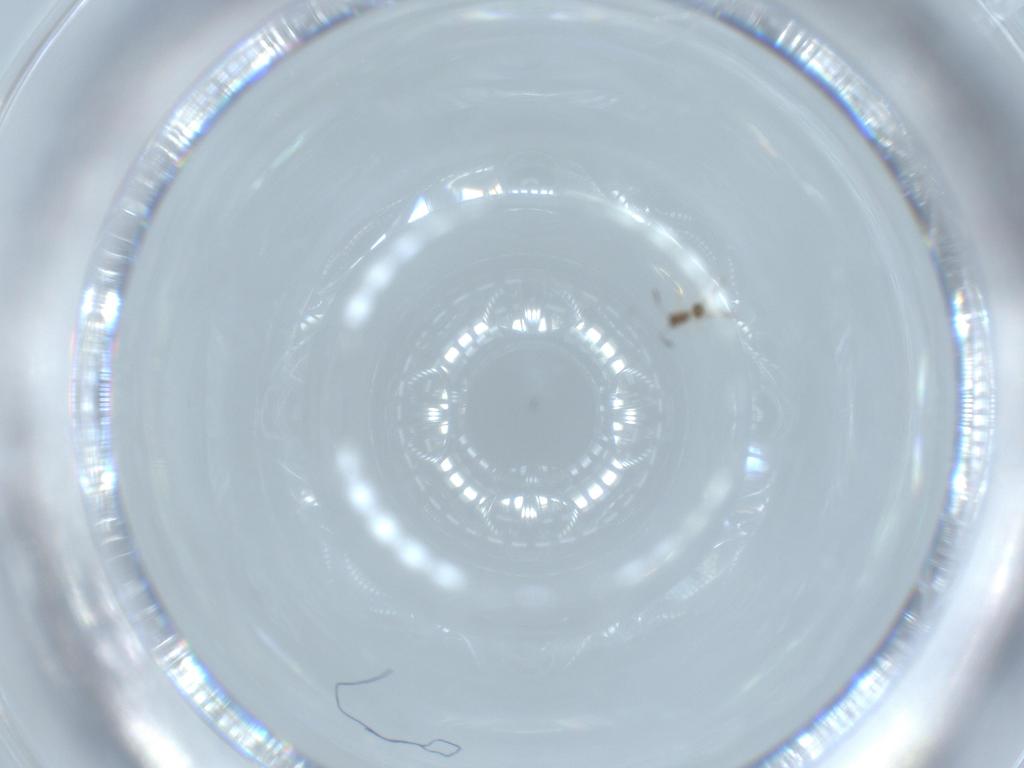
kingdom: Animalia
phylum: Arthropoda
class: Insecta
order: Hymenoptera
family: Mymarommatidae
